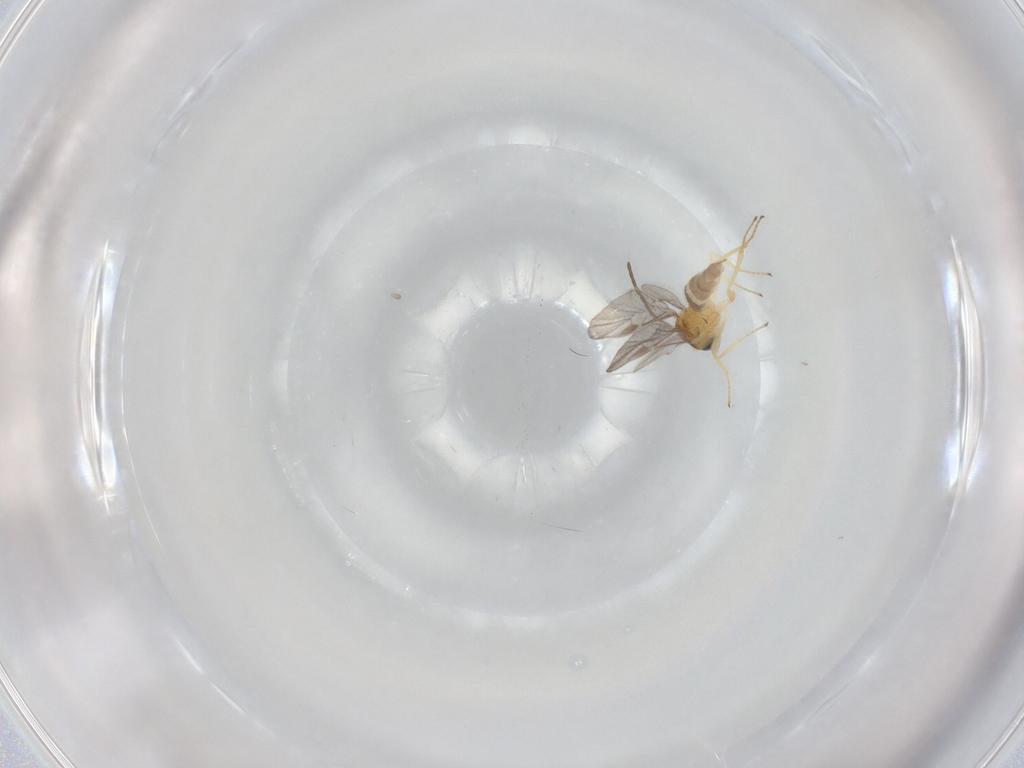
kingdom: Animalia
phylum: Arthropoda
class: Insecta
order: Hymenoptera
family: Braconidae
